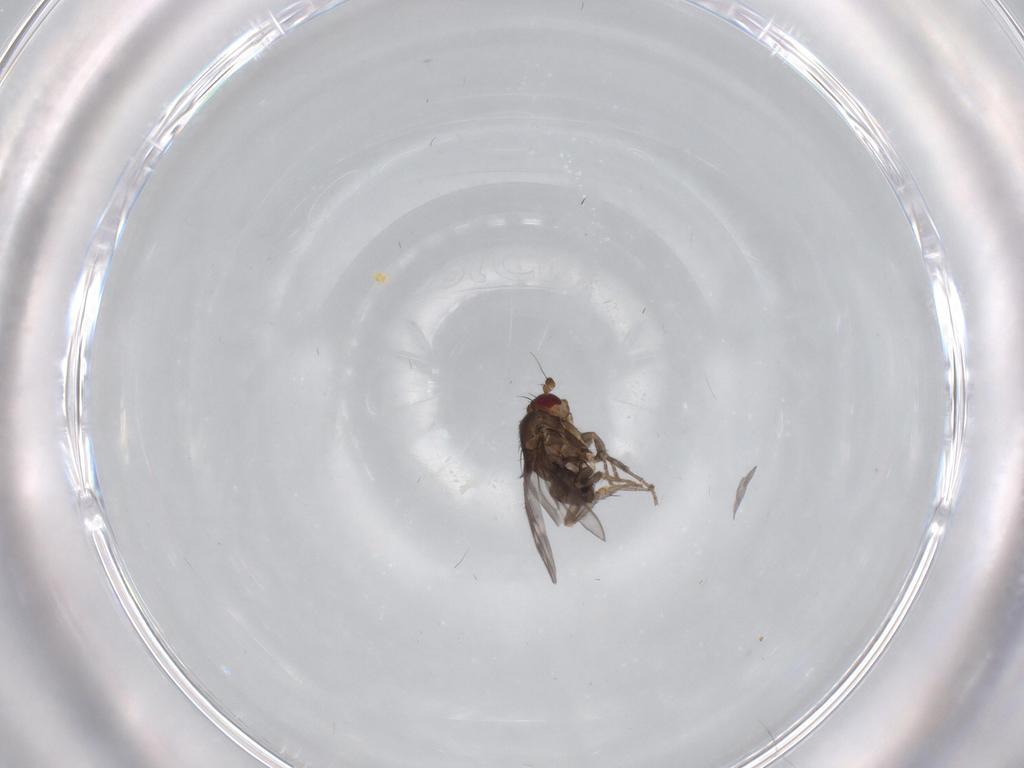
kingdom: Animalia
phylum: Arthropoda
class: Insecta
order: Diptera
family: Sphaeroceridae
